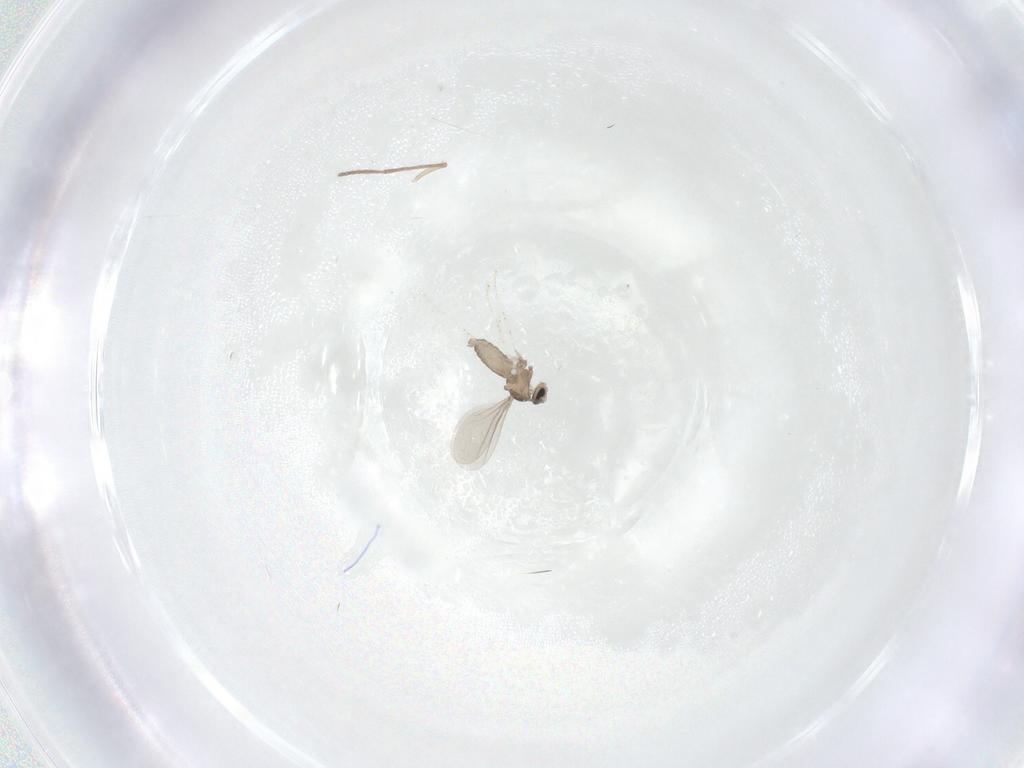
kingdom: Animalia
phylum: Arthropoda
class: Insecta
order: Diptera
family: Psychodidae
